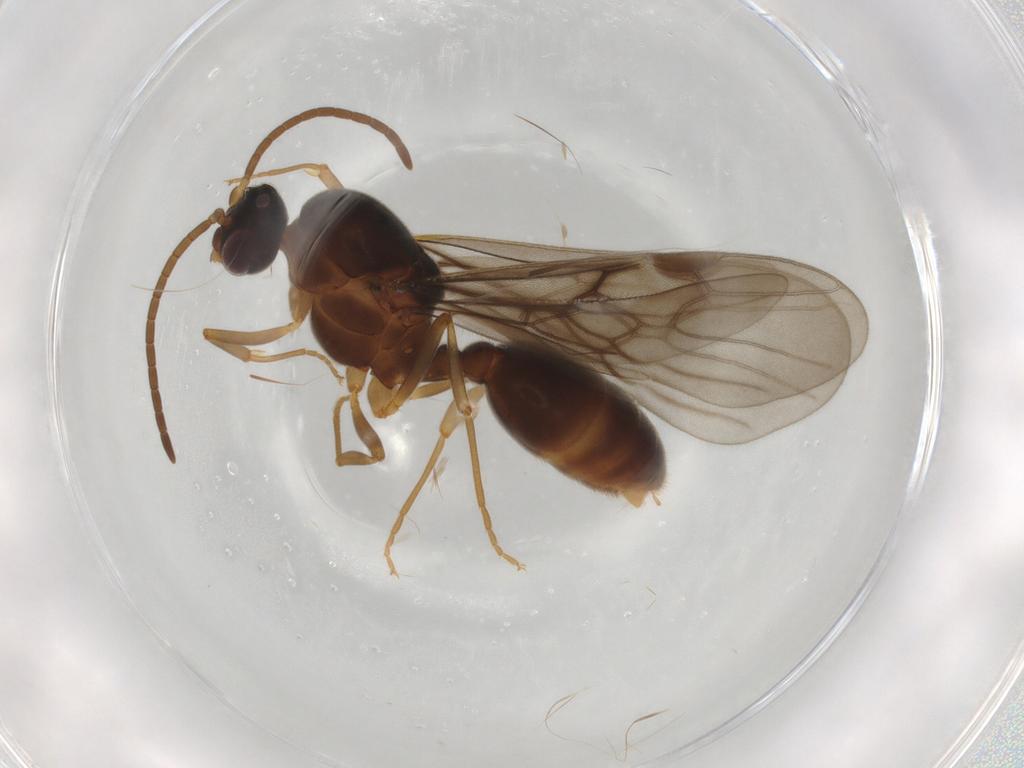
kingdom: Animalia
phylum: Arthropoda
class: Insecta
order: Hymenoptera
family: Formicidae
